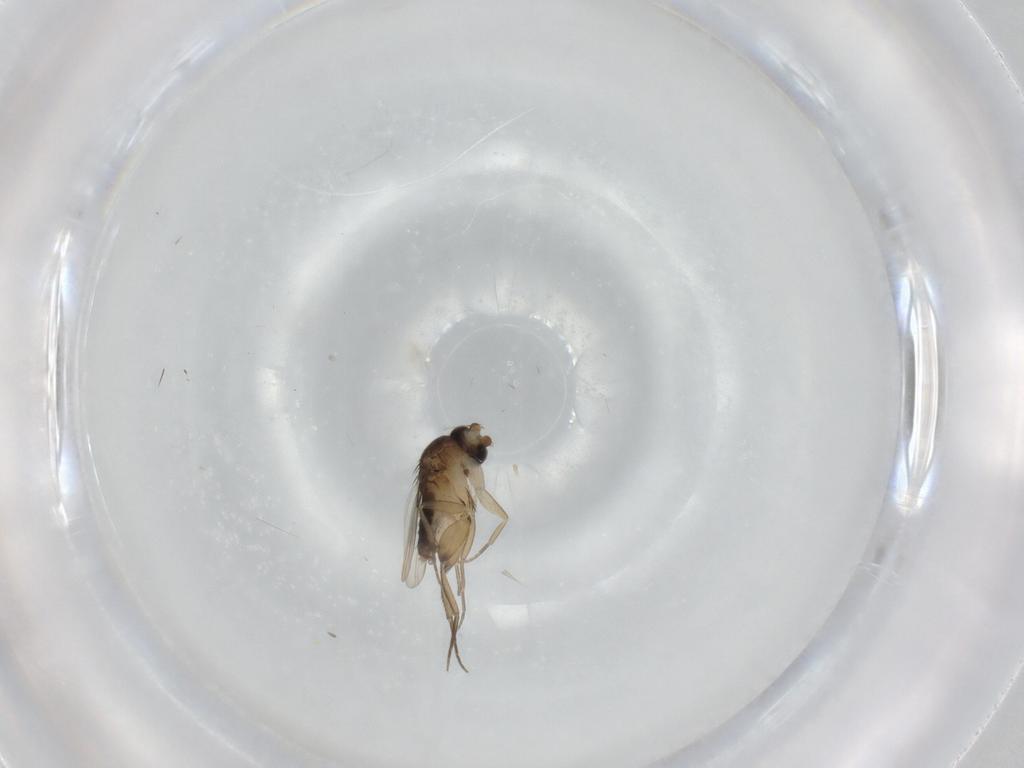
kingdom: Animalia
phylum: Arthropoda
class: Insecta
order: Diptera
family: Phoridae
